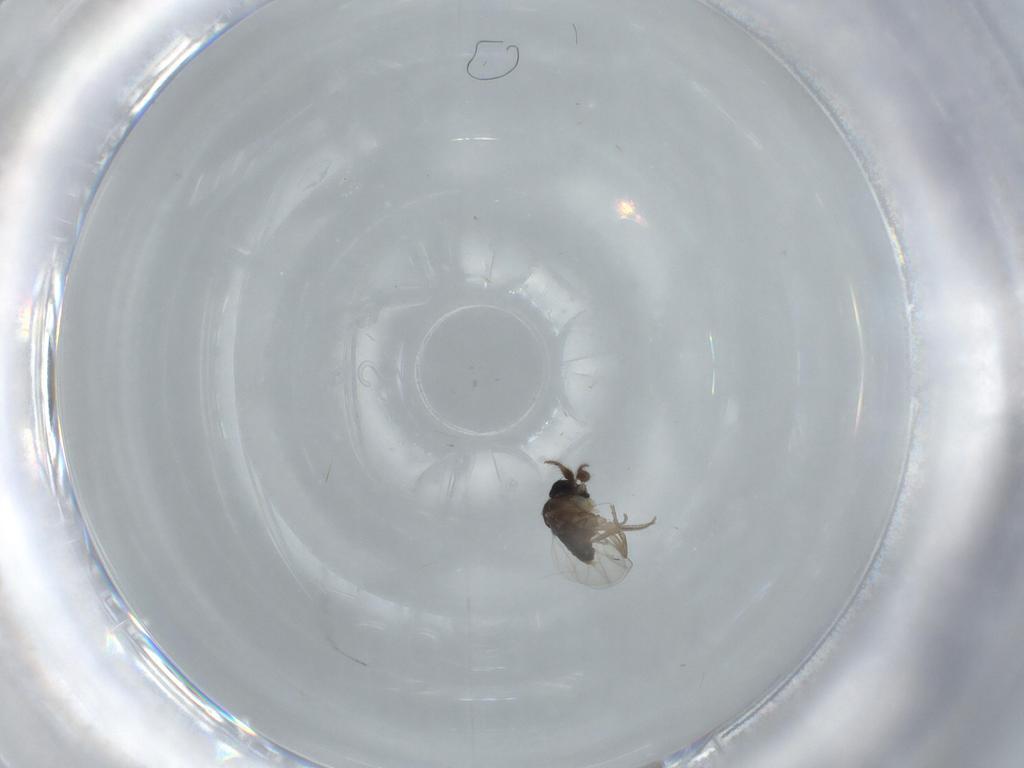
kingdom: Animalia
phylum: Arthropoda
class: Insecta
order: Diptera
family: Phoridae
